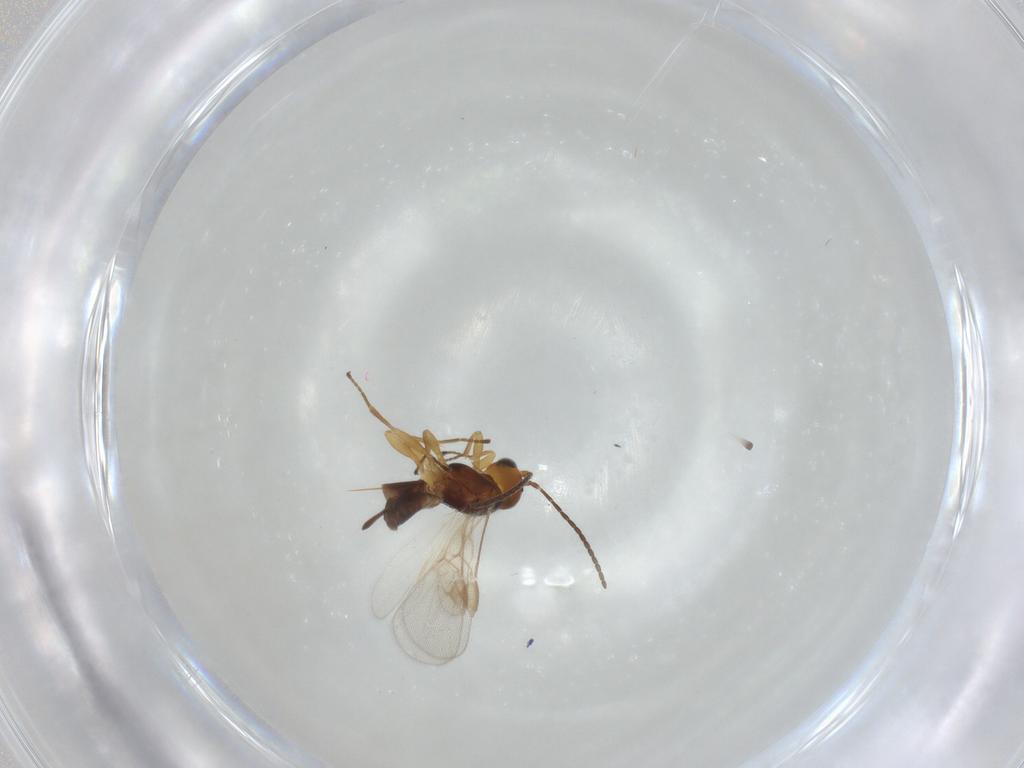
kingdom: Animalia
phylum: Arthropoda
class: Insecta
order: Hymenoptera
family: Braconidae
